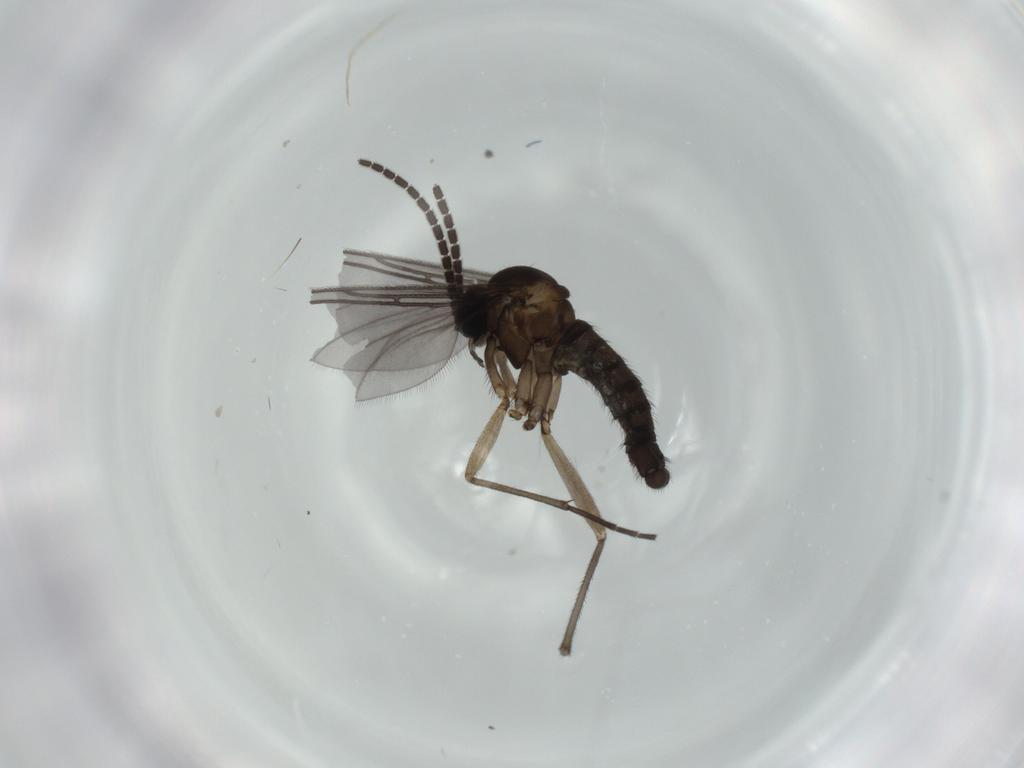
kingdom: Animalia
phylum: Arthropoda
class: Insecta
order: Diptera
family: Sciaridae
